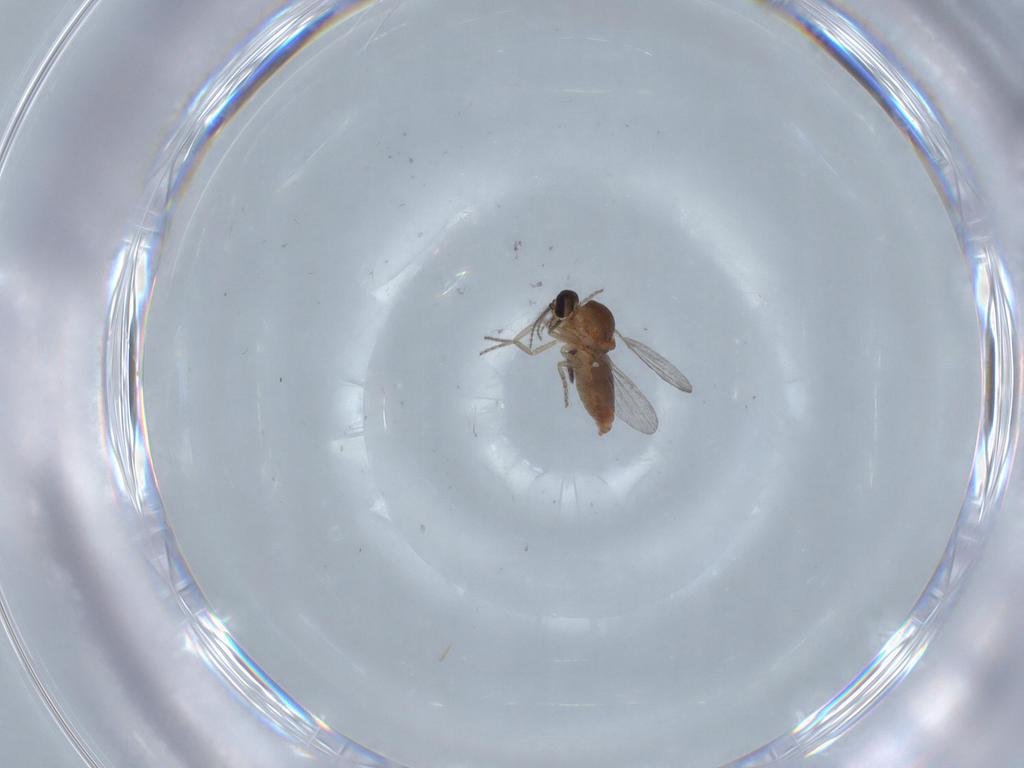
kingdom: Animalia
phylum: Arthropoda
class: Insecta
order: Diptera
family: Ceratopogonidae
